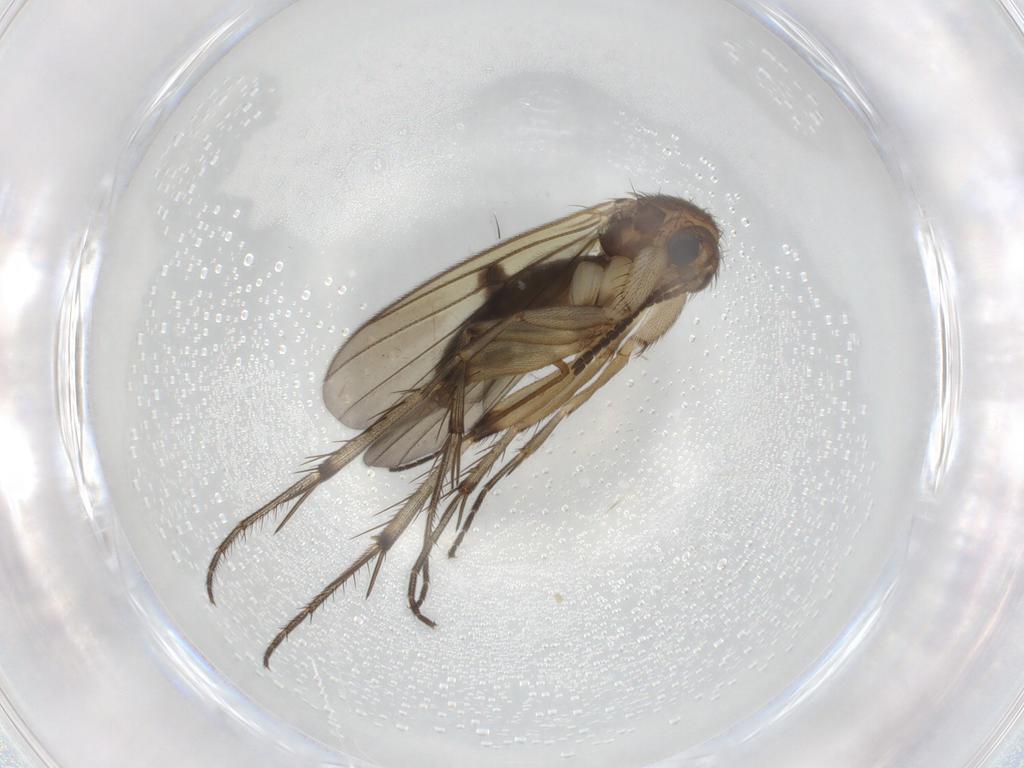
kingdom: Animalia
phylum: Arthropoda
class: Insecta
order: Diptera
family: Mycetophilidae
